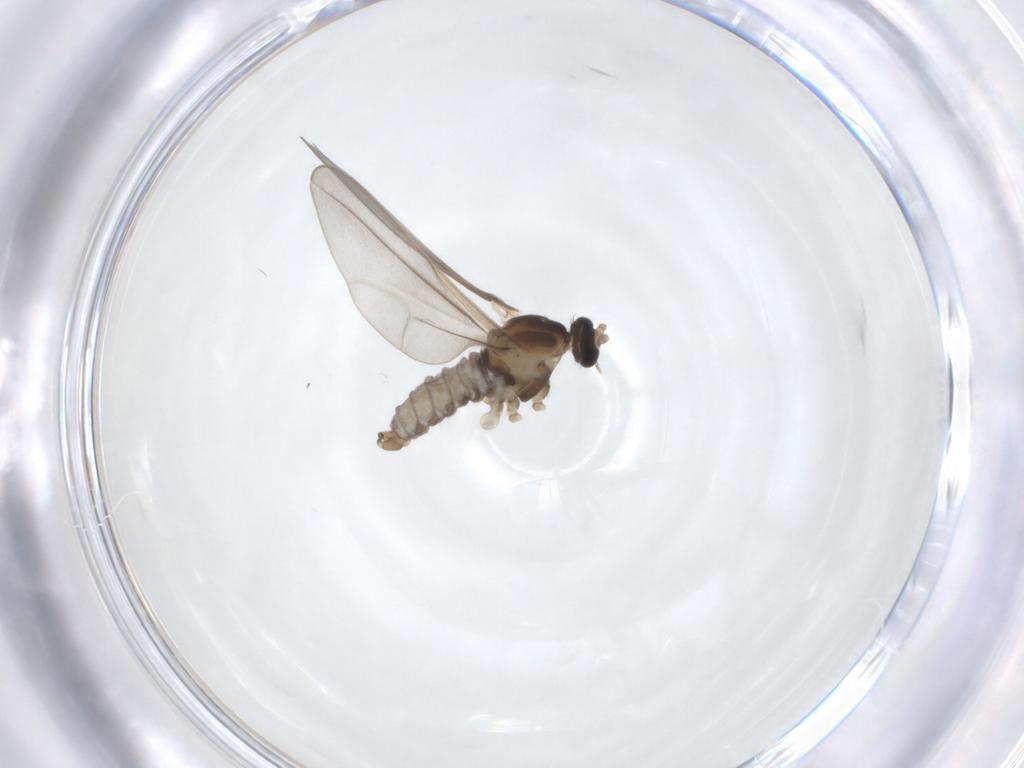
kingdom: Animalia
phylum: Arthropoda
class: Insecta
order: Diptera
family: Cecidomyiidae
